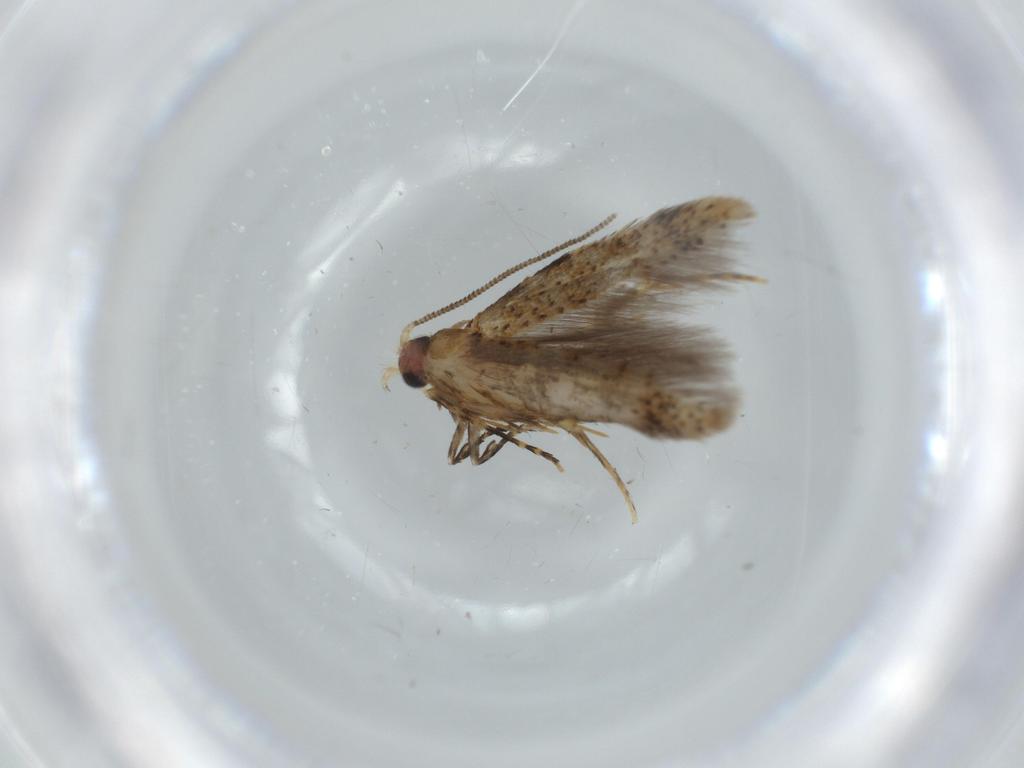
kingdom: Animalia
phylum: Arthropoda
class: Insecta
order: Lepidoptera
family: Tineidae
